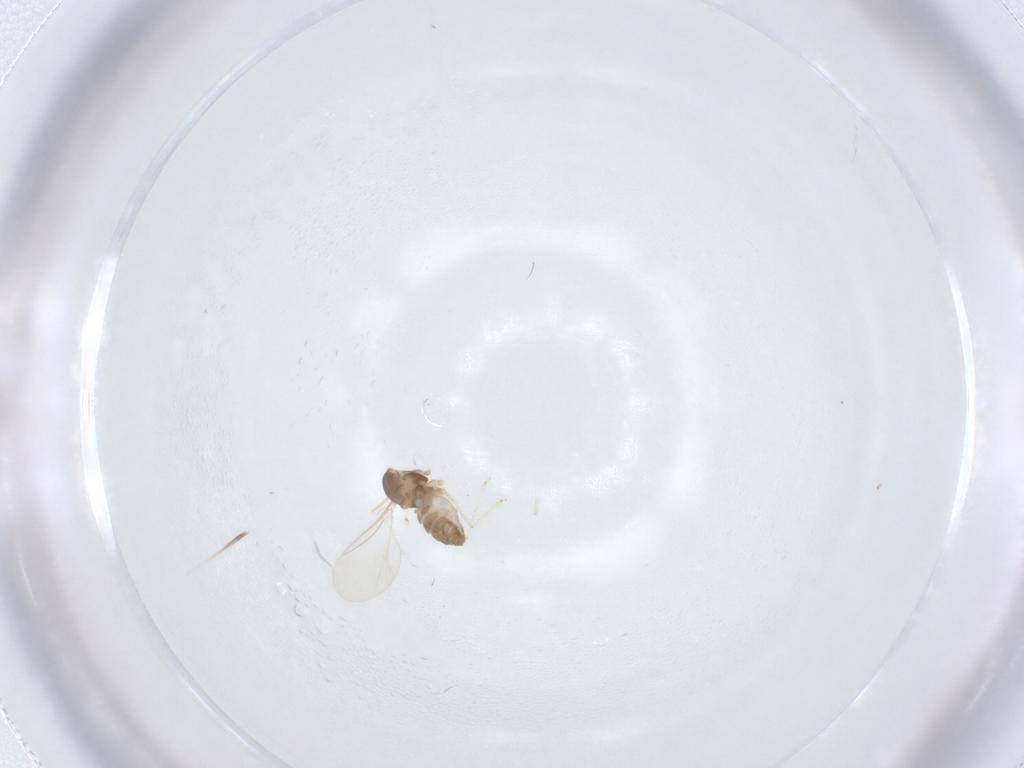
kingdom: Animalia
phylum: Arthropoda
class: Insecta
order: Diptera
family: Cecidomyiidae
